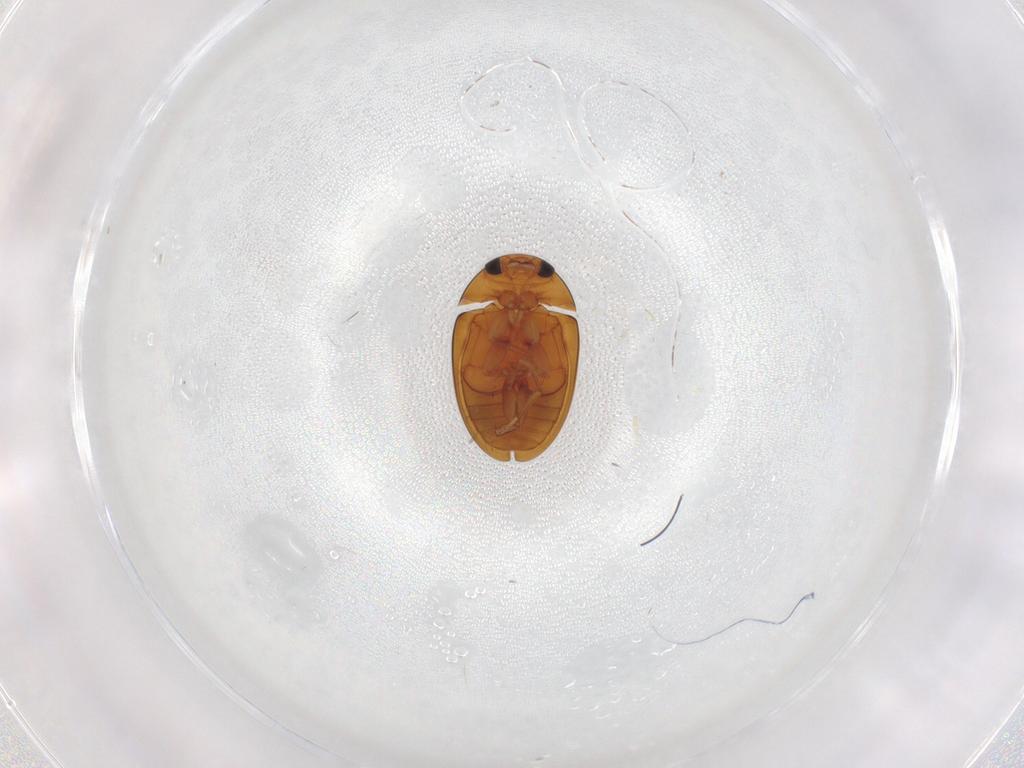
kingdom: Animalia
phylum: Arthropoda
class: Insecta
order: Coleoptera
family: Phalacridae
